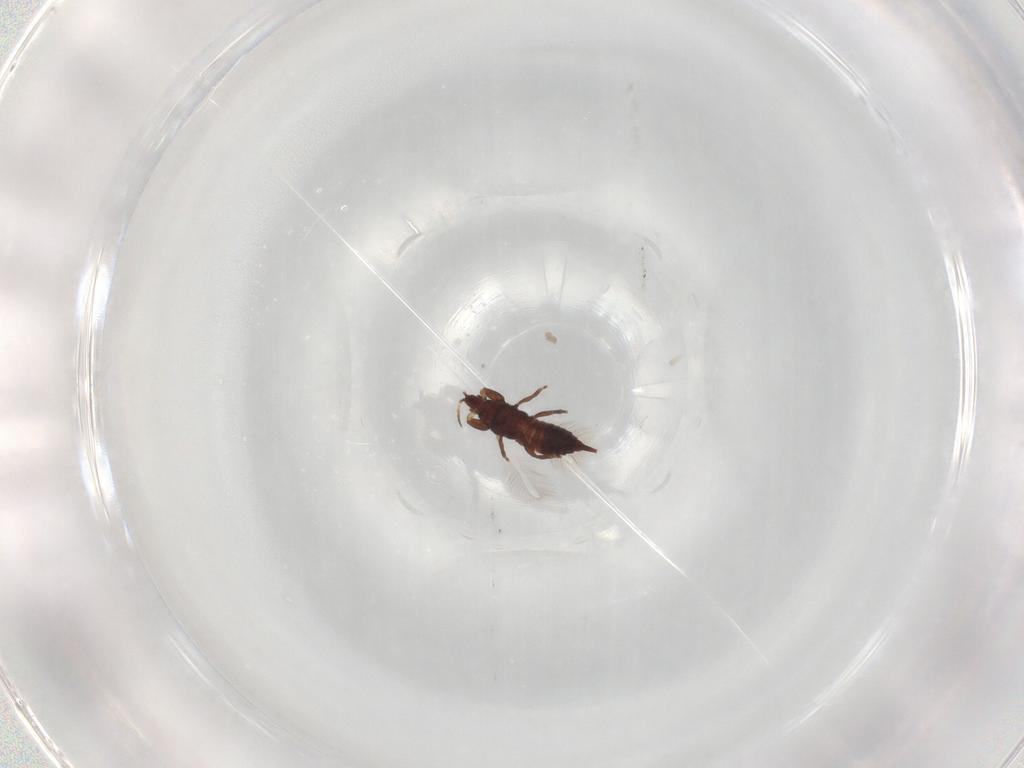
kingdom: Animalia
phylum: Arthropoda
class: Insecta
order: Thysanoptera
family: Phlaeothripidae
